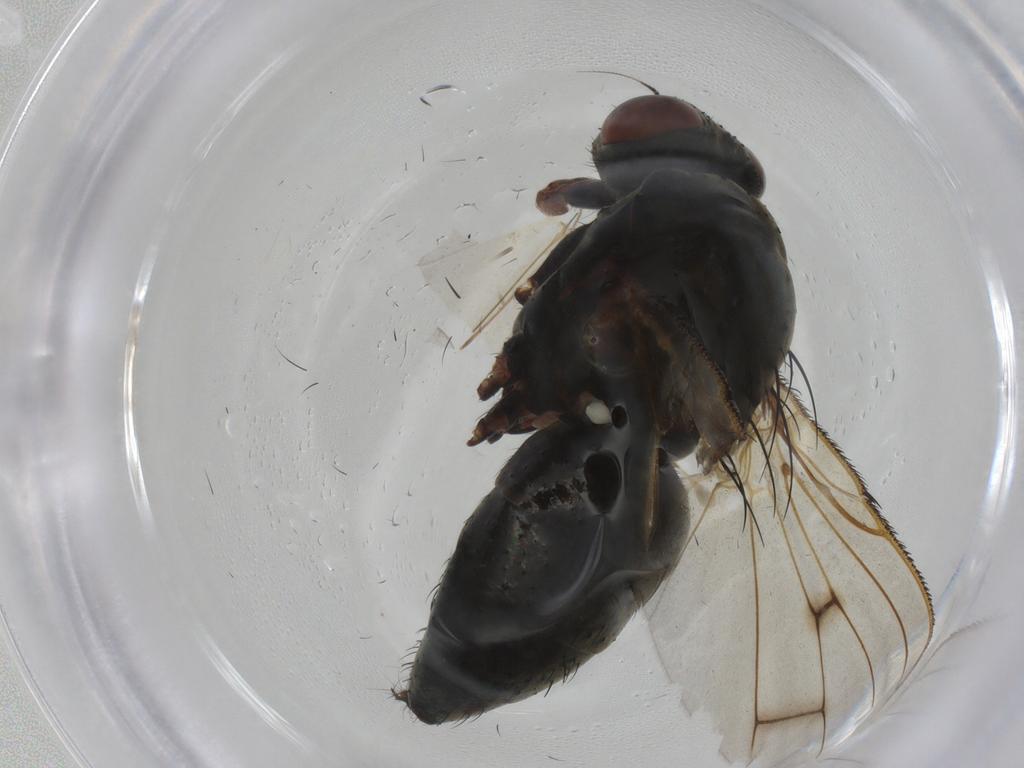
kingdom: Animalia
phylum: Arthropoda
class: Insecta
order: Diptera
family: Anthomyiidae
